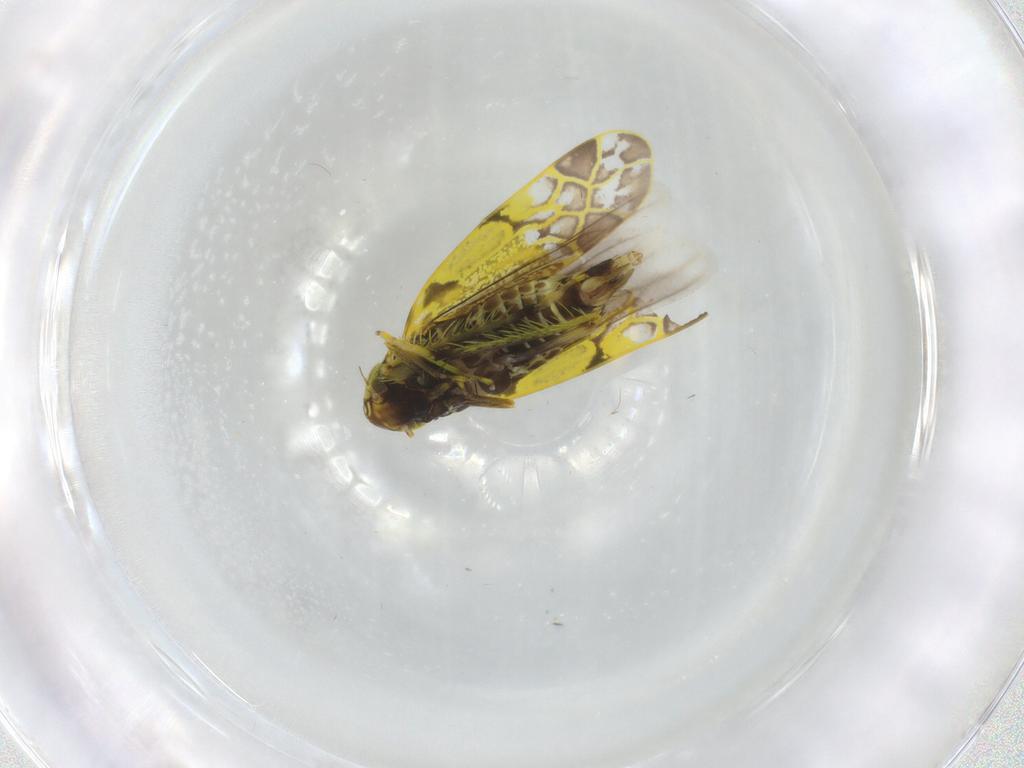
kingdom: Animalia
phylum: Arthropoda
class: Insecta
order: Hemiptera
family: Cicadellidae
